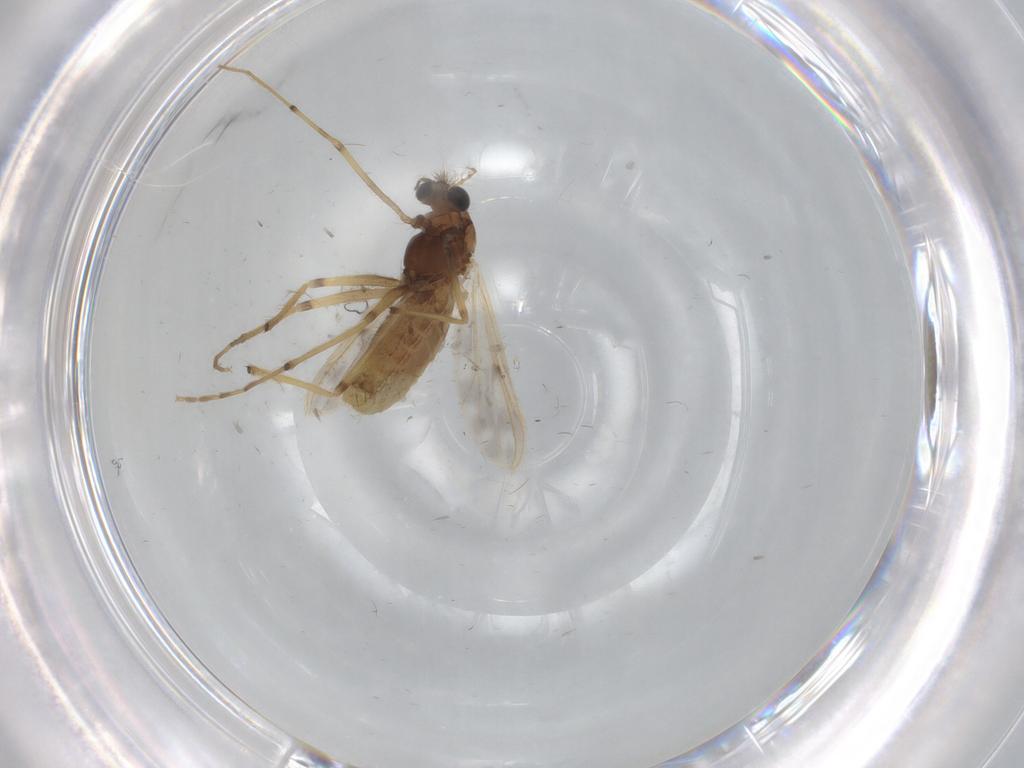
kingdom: Animalia
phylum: Arthropoda
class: Insecta
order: Diptera
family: Chironomidae
